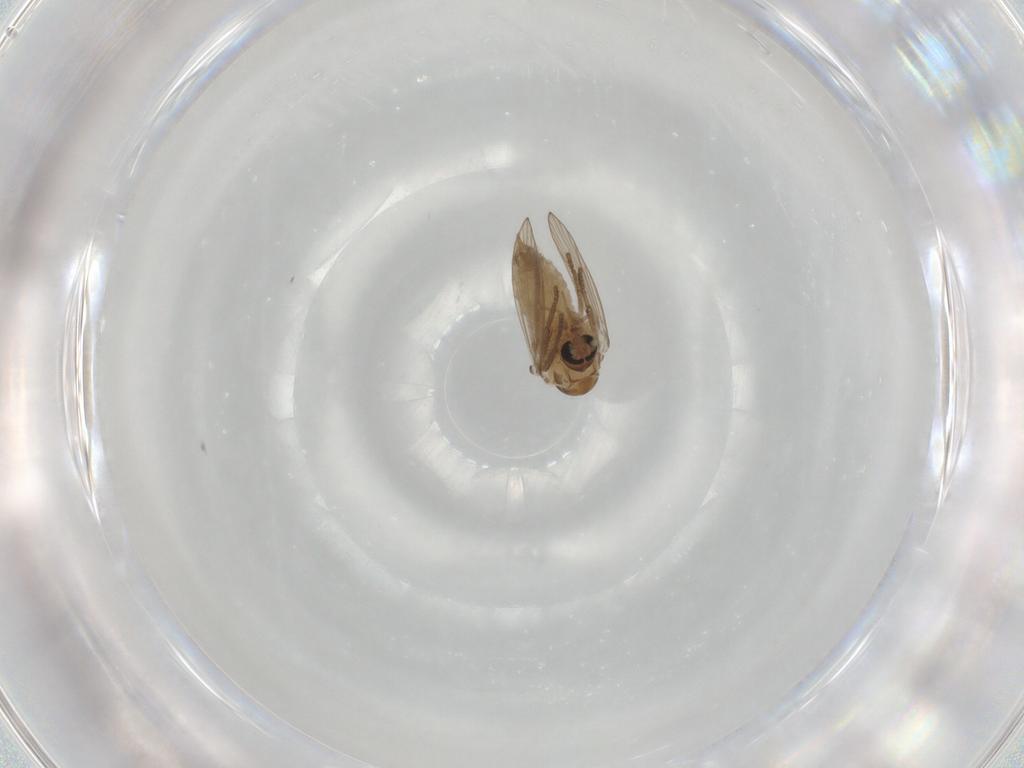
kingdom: Animalia
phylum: Arthropoda
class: Insecta
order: Diptera
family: Psychodidae
